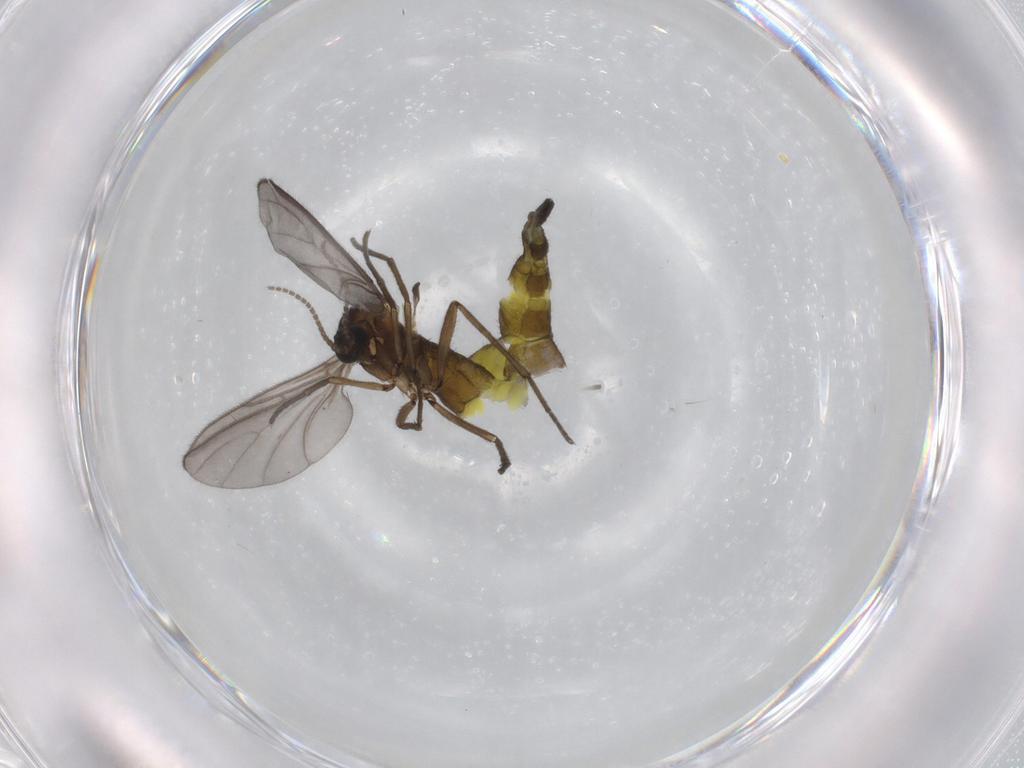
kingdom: Animalia
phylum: Arthropoda
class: Insecta
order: Diptera
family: Sciaridae
